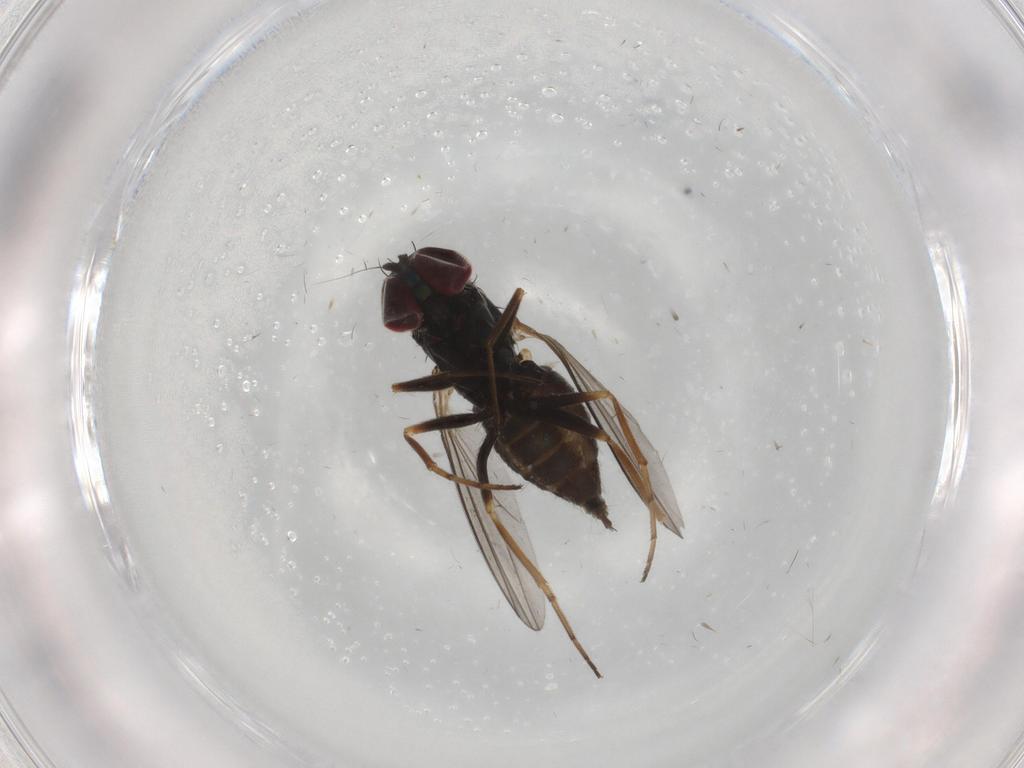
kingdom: Animalia
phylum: Arthropoda
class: Insecta
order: Diptera
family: Dolichopodidae
